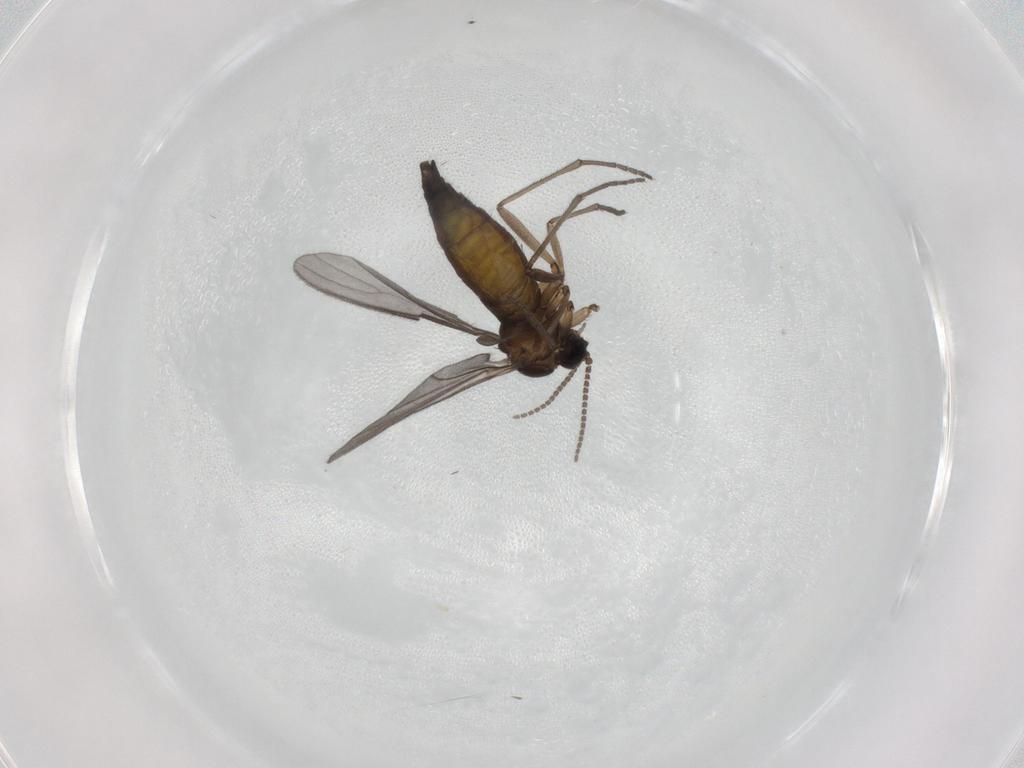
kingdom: Animalia
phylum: Arthropoda
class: Insecta
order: Diptera
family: Sciaridae
